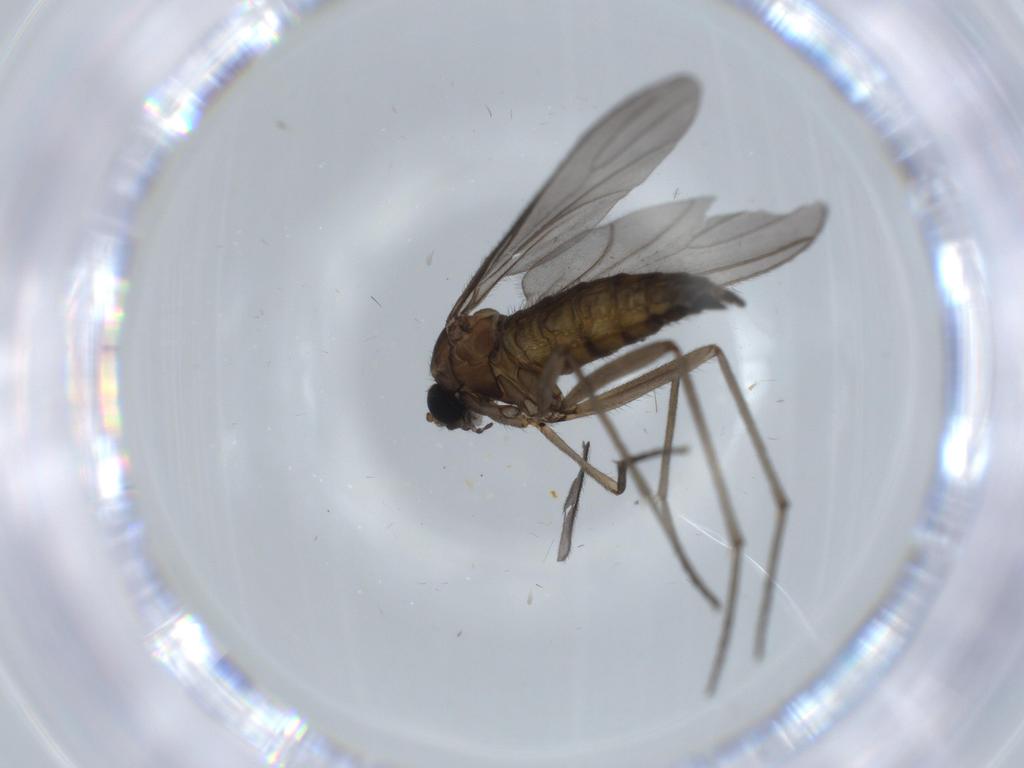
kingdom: Animalia
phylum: Arthropoda
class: Insecta
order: Diptera
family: Sciaridae
